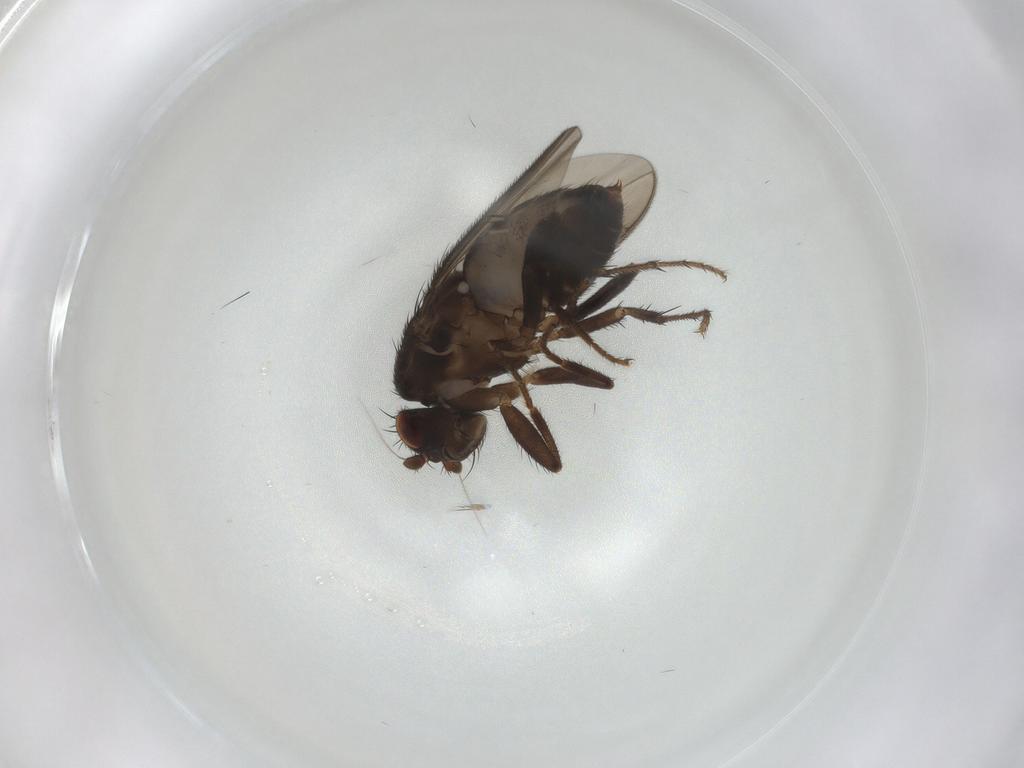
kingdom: Animalia
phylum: Arthropoda
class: Insecta
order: Diptera
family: Sphaeroceridae
